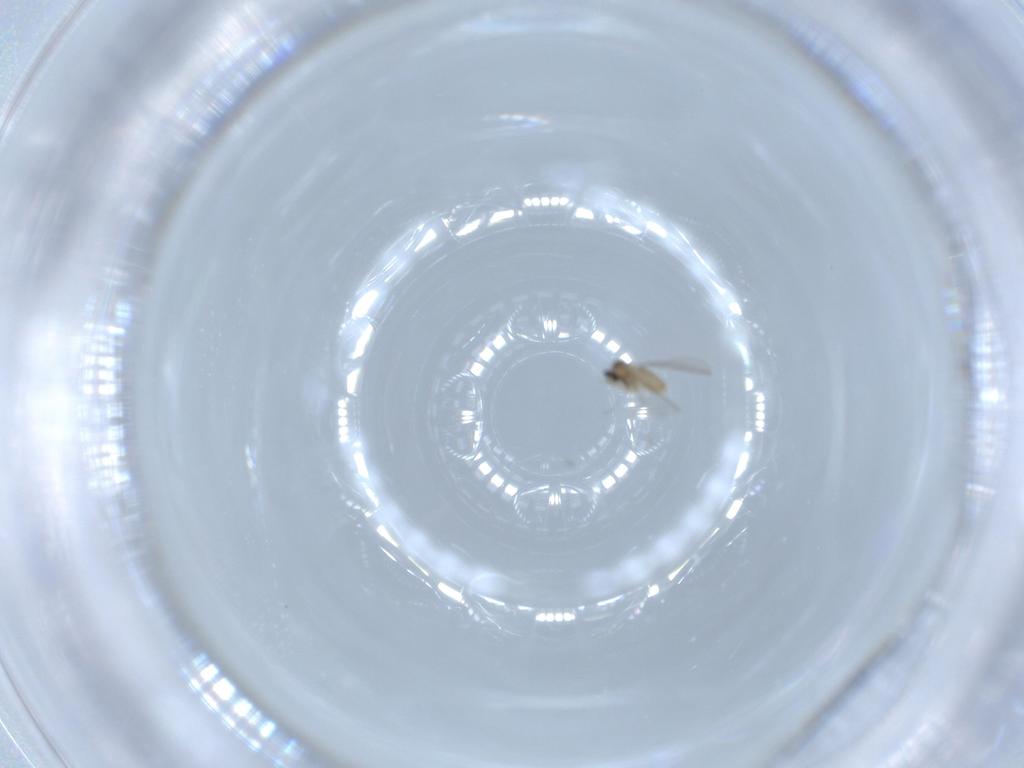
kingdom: Animalia
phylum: Arthropoda
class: Insecta
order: Diptera
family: Cecidomyiidae
